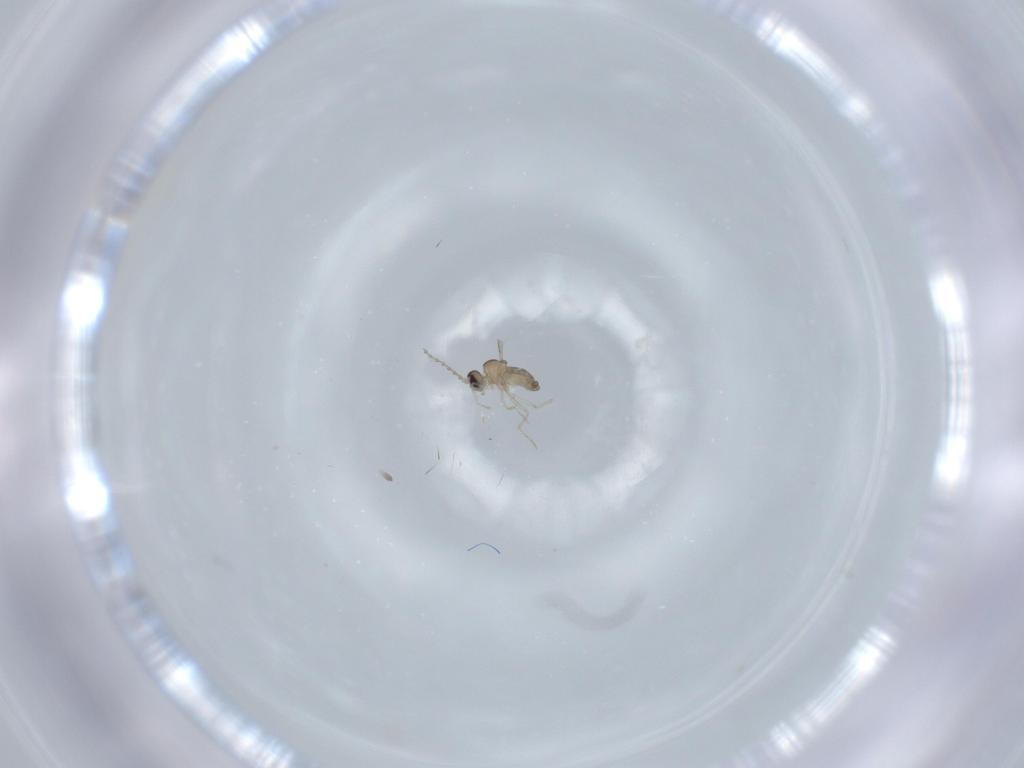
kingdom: Animalia
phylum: Arthropoda
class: Insecta
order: Diptera
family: Cecidomyiidae
